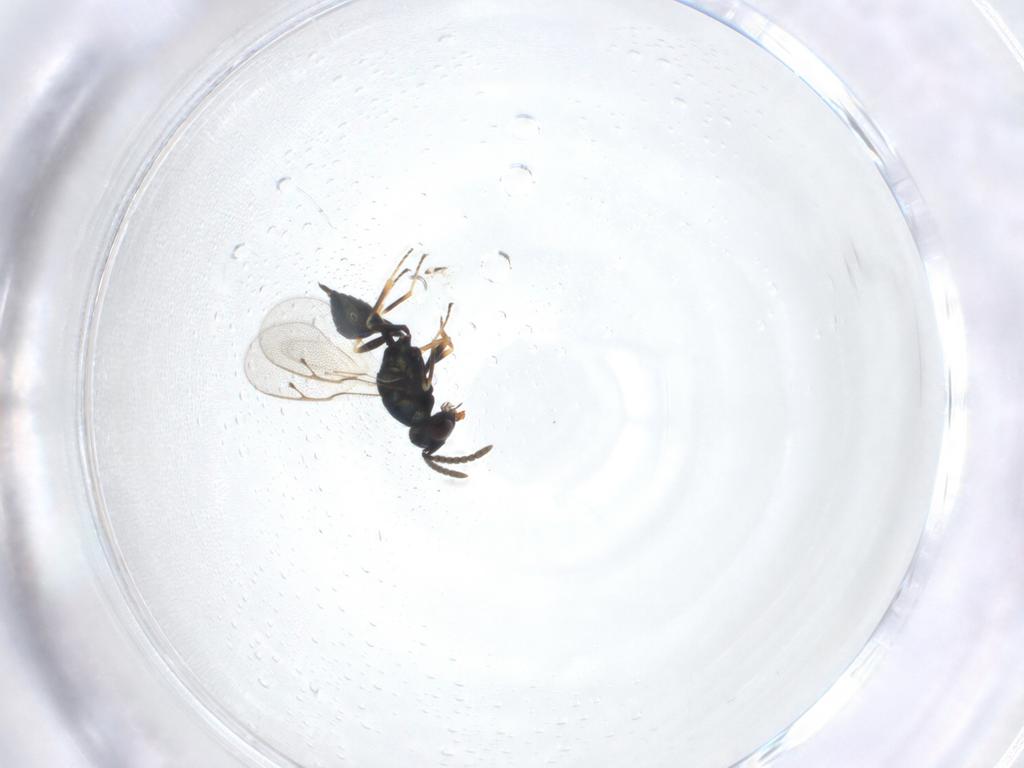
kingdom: Animalia
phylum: Arthropoda
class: Insecta
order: Hymenoptera
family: Pteromalidae
